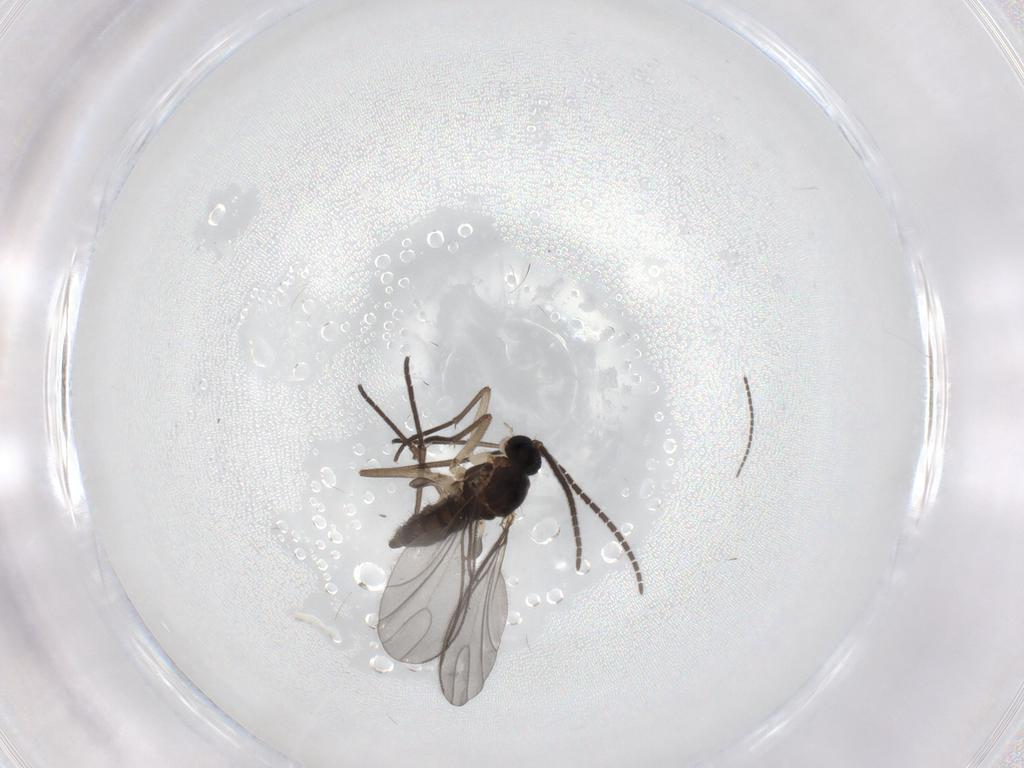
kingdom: Animalia
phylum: Arthropoda
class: Insecta
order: Diptera
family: Sciaridae
